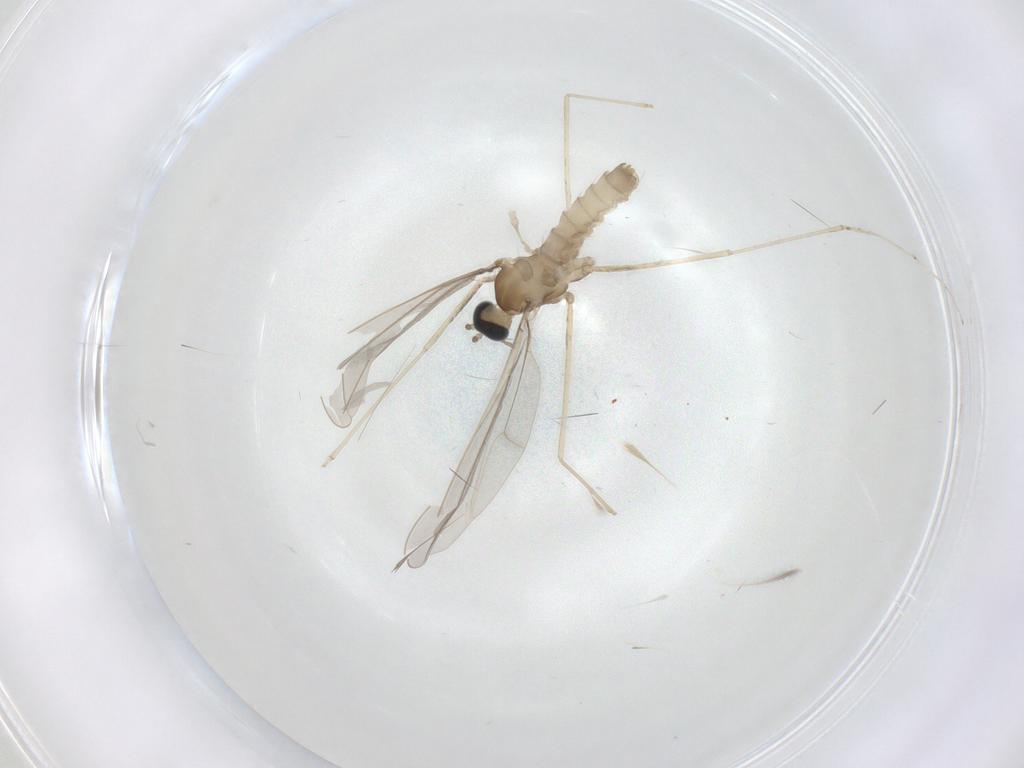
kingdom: Animalia
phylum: Arthropoda
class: Insecta
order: Diptera
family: Cecidomyiidae
